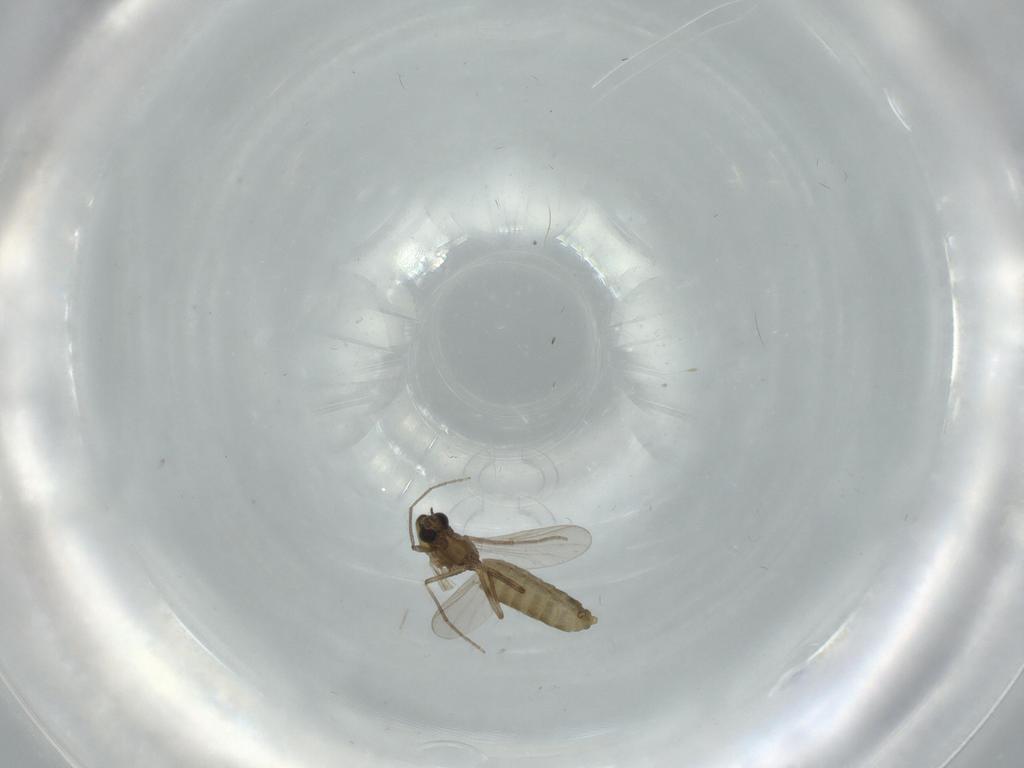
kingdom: Animalia
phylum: Arthropoda
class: Insecta
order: Diptera
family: Chironomidae
